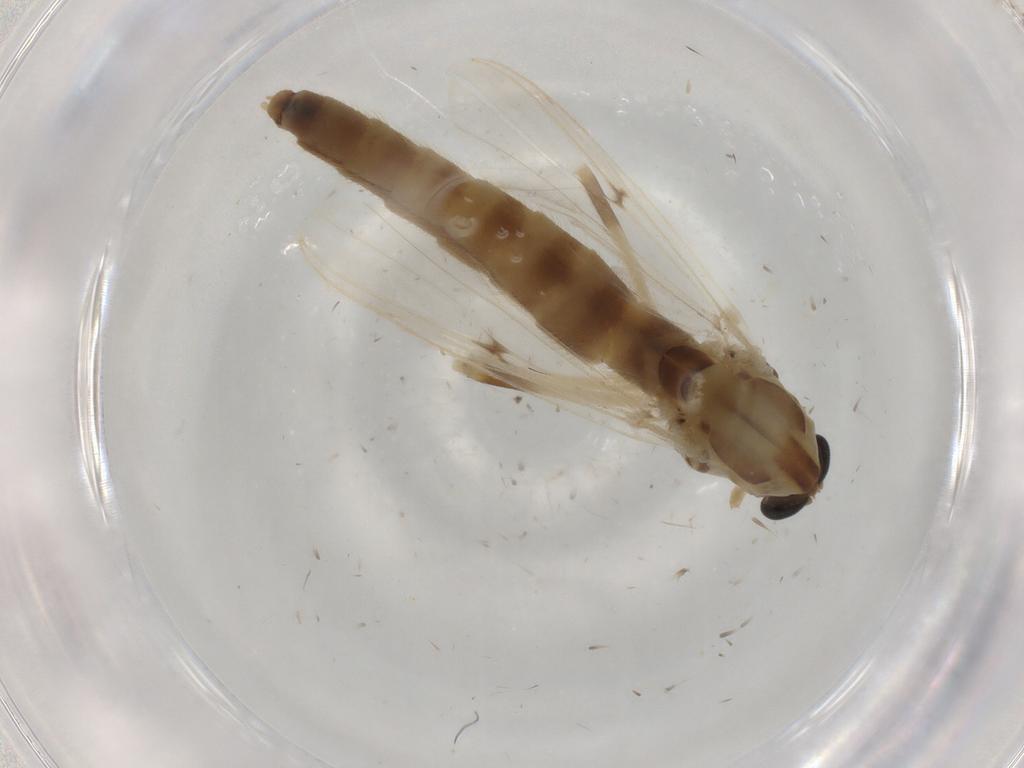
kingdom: Animalia
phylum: Arthropoda
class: Insecta
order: Diptera
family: Chironomidae
